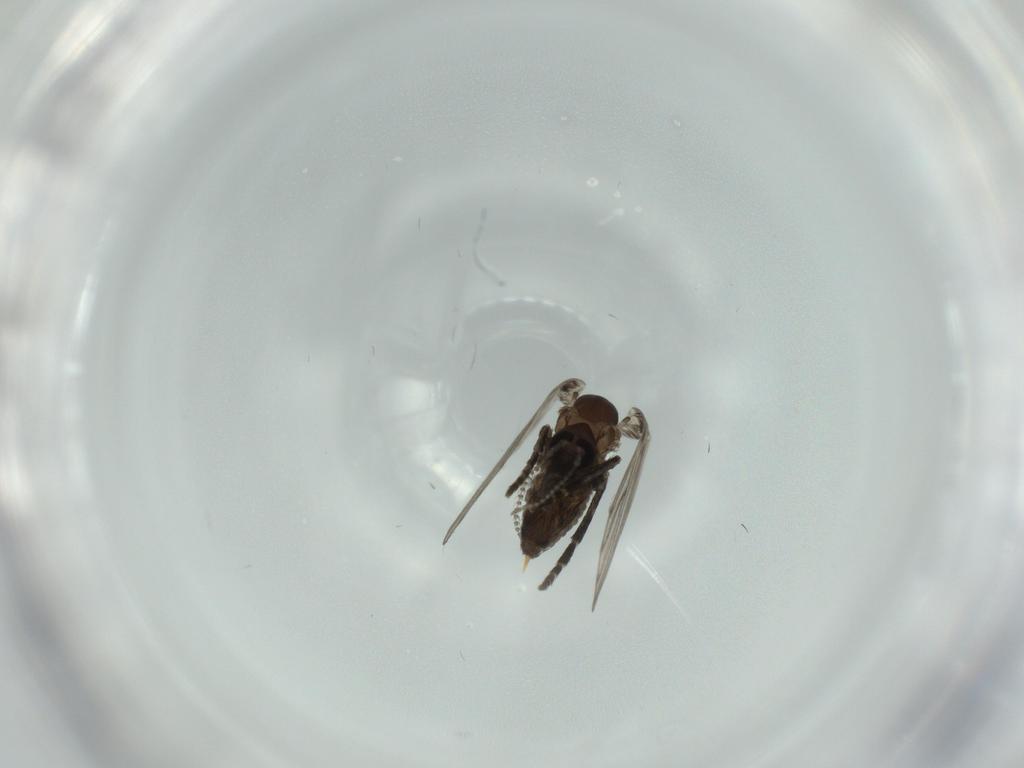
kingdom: Animalia
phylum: Arthropoda
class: Insecta
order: Diptera
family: Psychodidae
